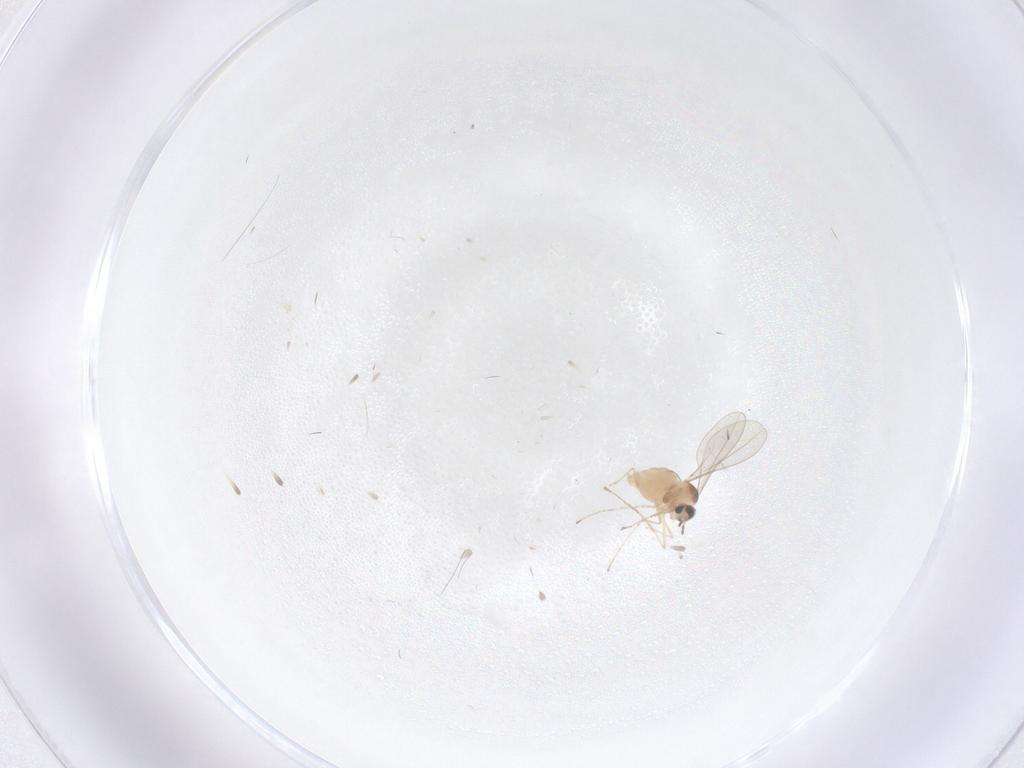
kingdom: Animalia
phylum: Arthropoda
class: Insecta
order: Diptera
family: Cecidomyiidae
